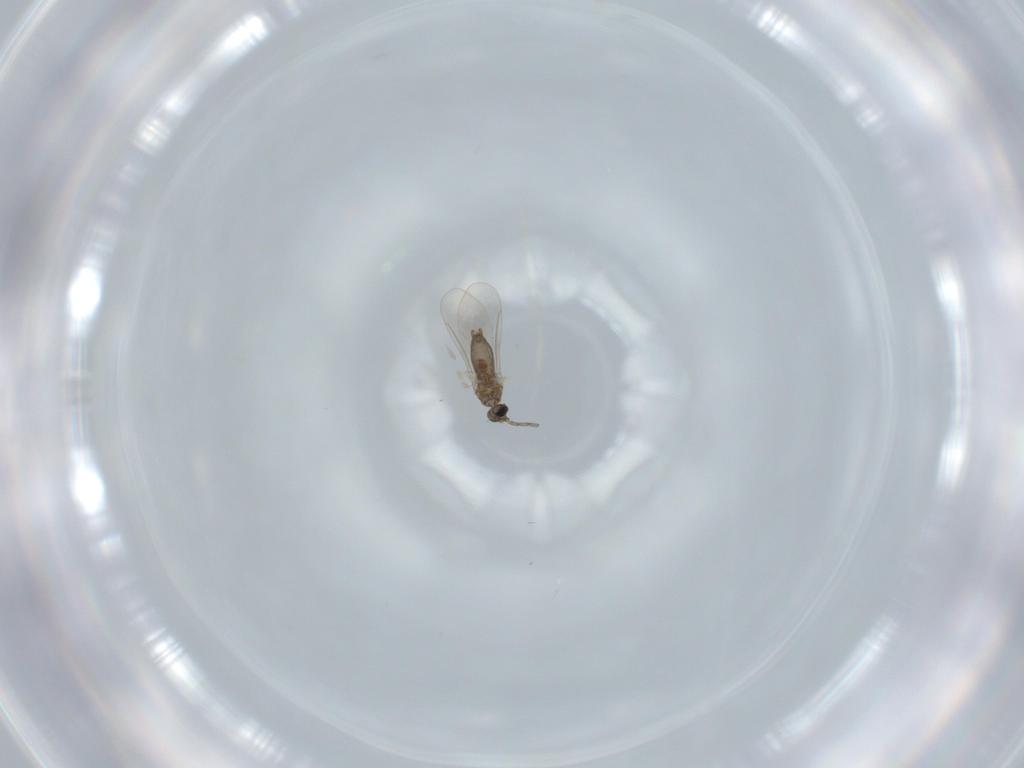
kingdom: Animalia
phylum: Arthropoda
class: Insecta
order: Diptera
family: Cecidomyiidae
